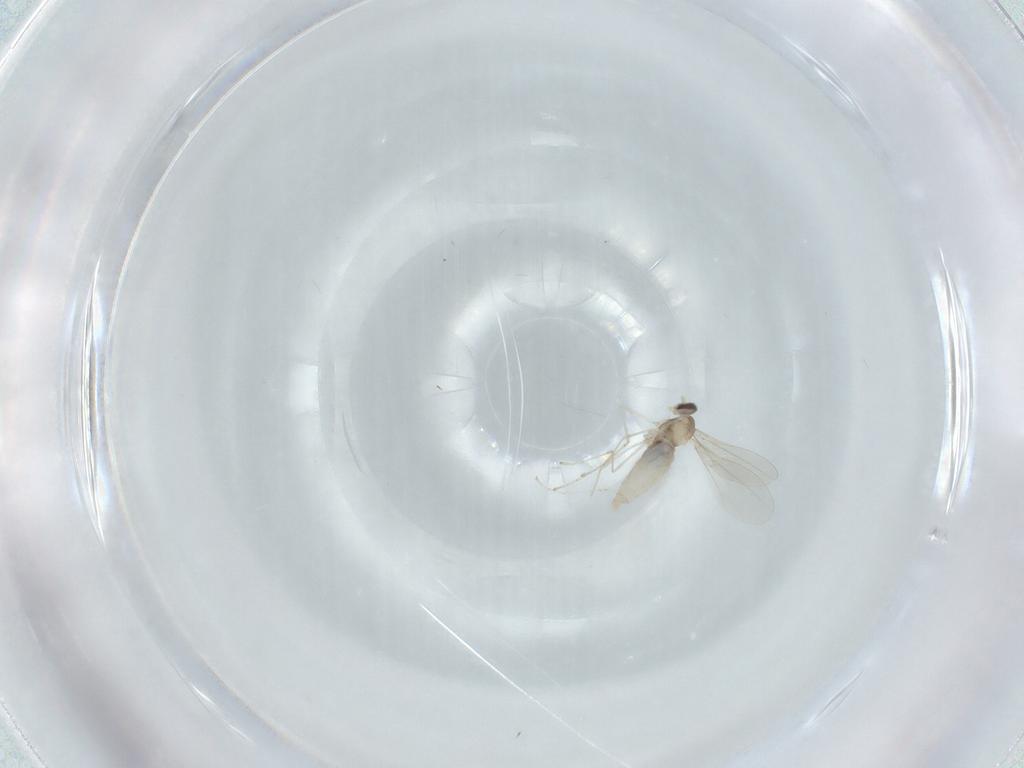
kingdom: Animalia
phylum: Arthropoda
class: Insecta
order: Diptera
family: Cecidomyiidae
